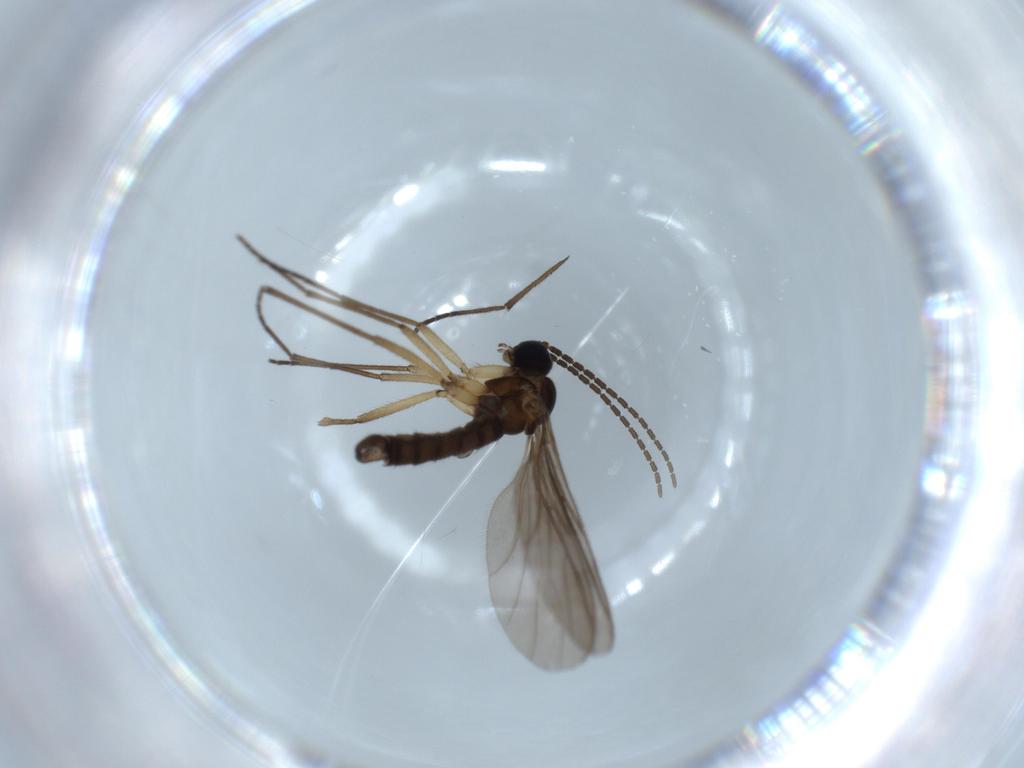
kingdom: Animalia
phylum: Arthropoda
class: Insecta
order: Diptera
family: Sciaridae
